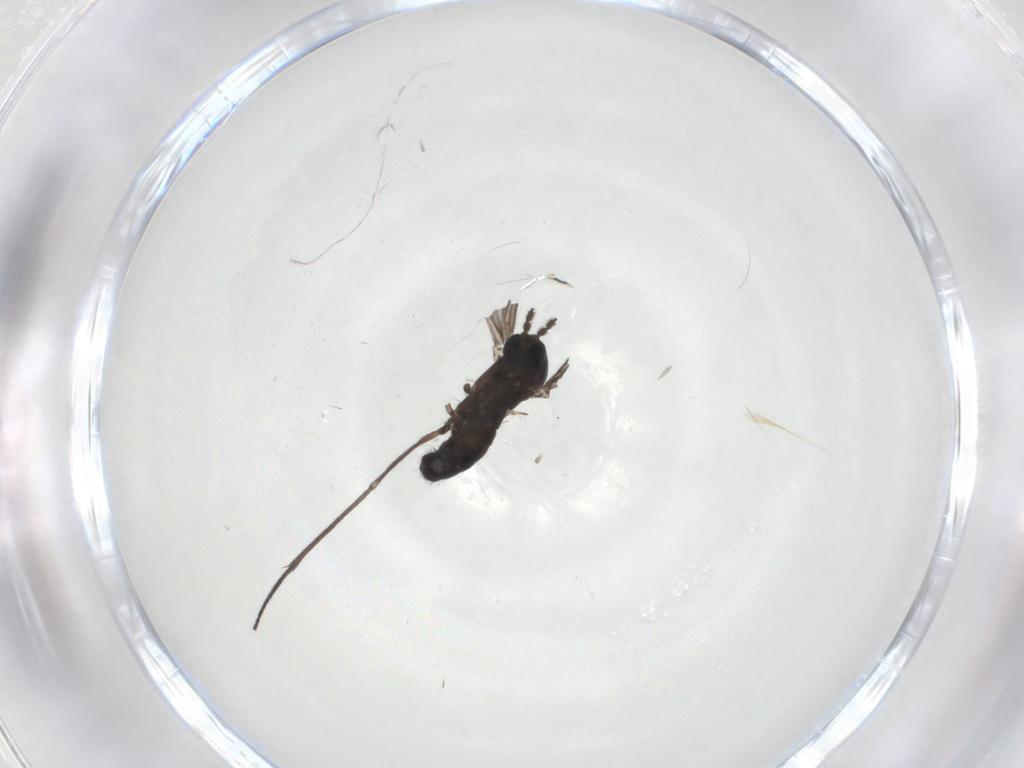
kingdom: Animalia
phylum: Arthropoda
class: Insecta
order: Diptera
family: Sciaridae
